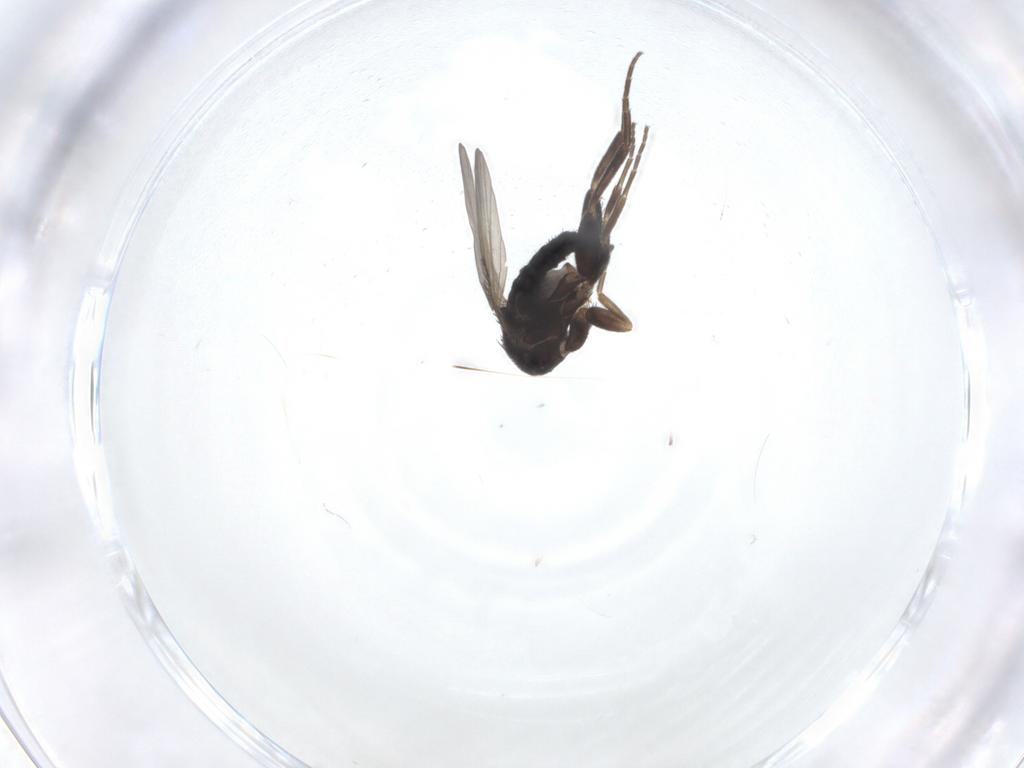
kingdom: Animalia
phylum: Arthropoda
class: Insecta
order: Diptera
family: Phoridae
